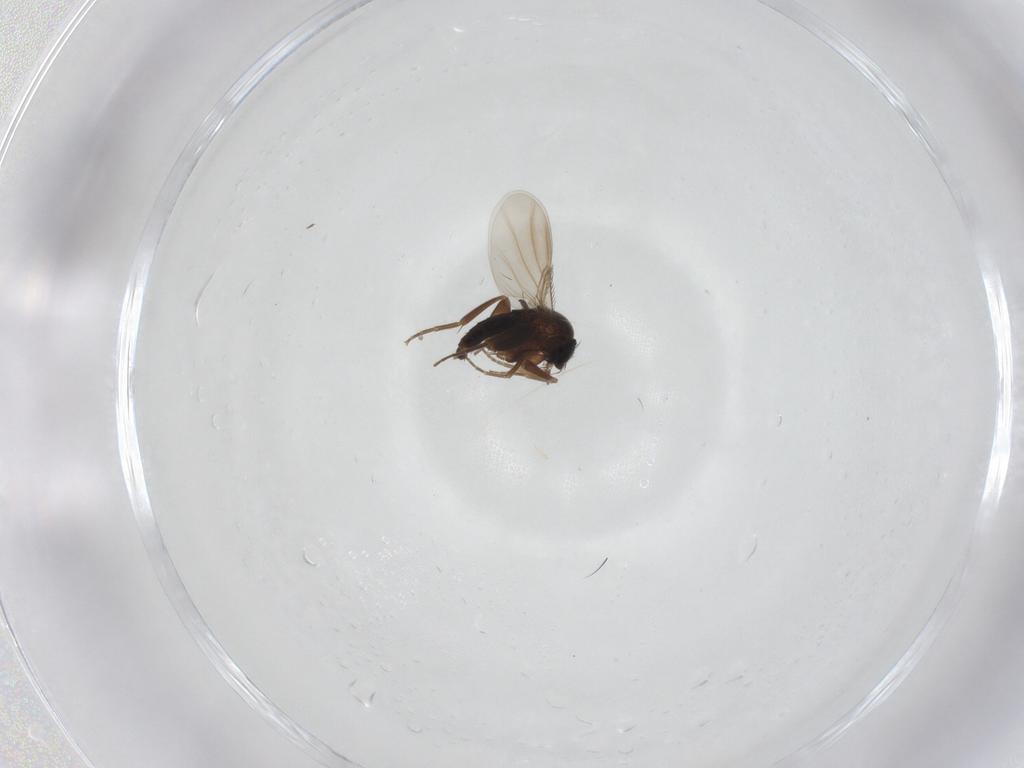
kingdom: Animalia
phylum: Arthropoda
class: Insecta
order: Diptera
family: Phoridae
